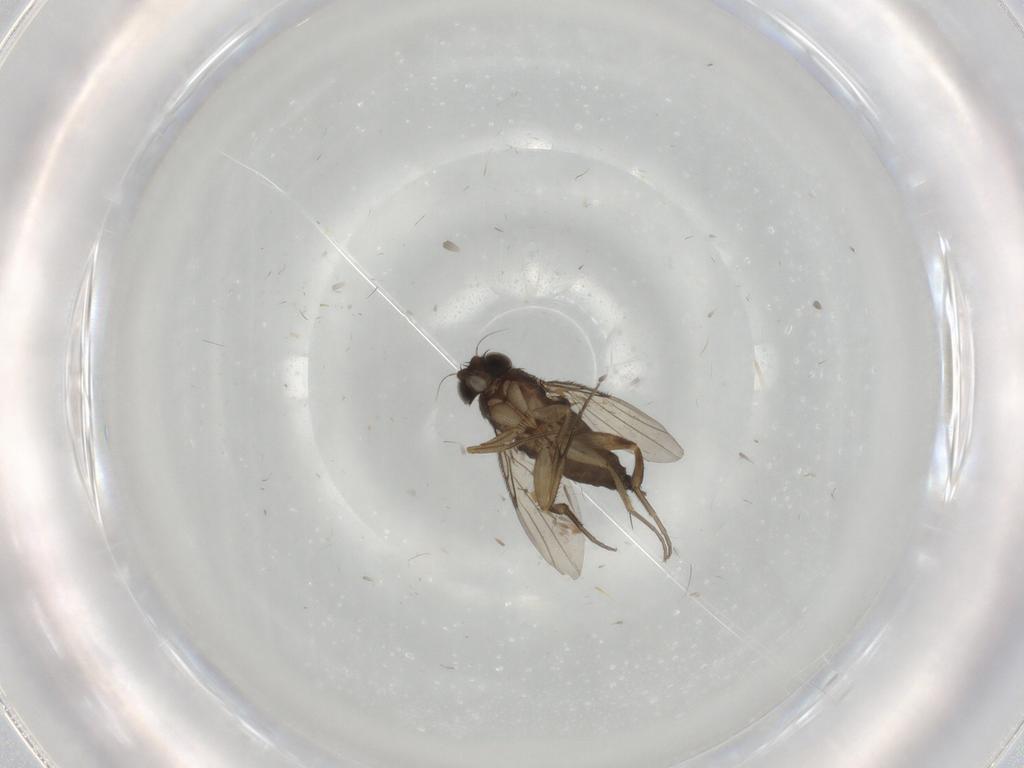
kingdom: Animalia
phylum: Arthropoda
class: Insecta
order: Diptera
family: Phoridae
